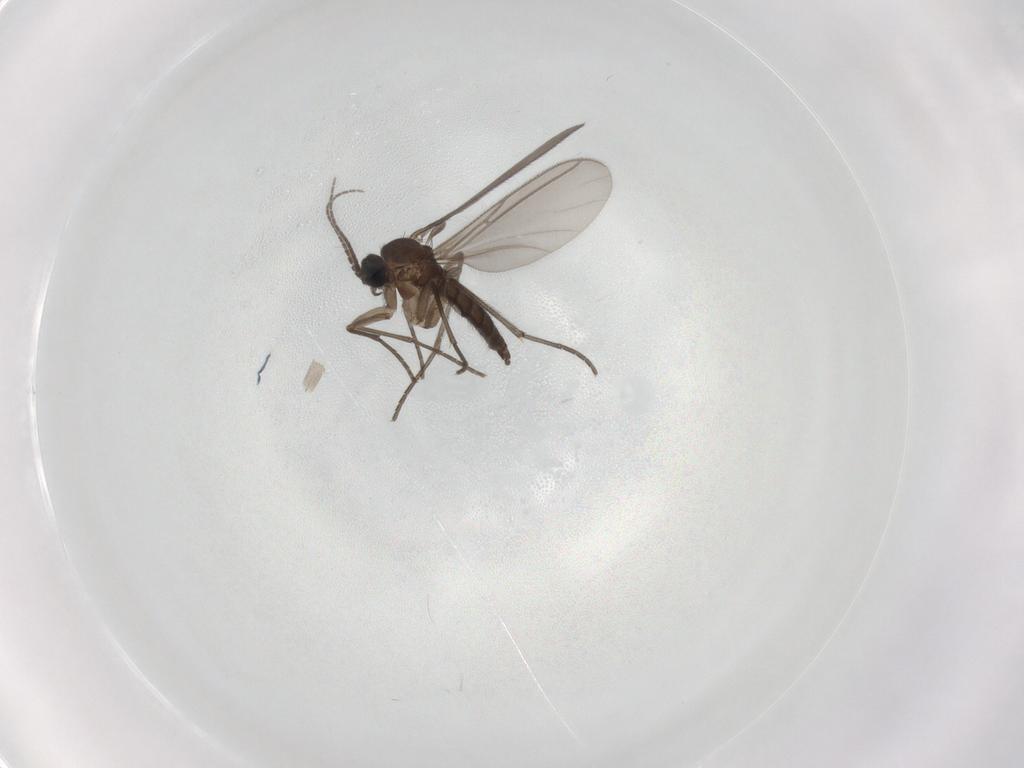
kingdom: Animalia
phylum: Arthropoda
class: Insecta
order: Diptera
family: Sciaridae
